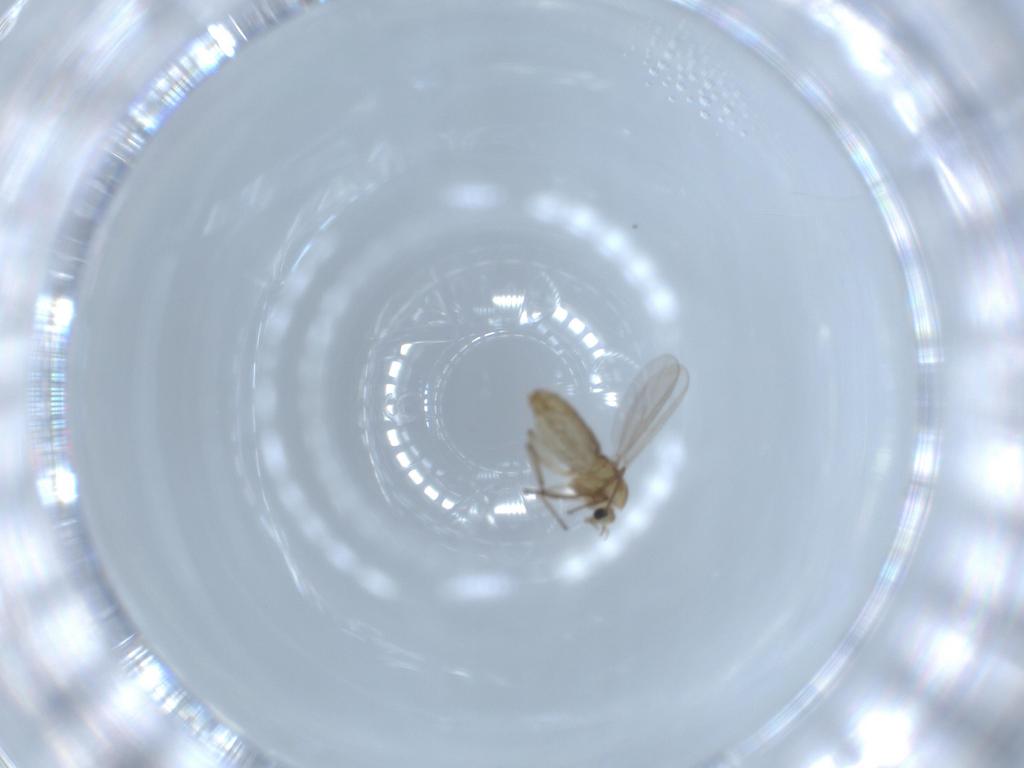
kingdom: Animalia
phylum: Arthropoda
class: Insecta
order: Diptera
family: Chironomidae
